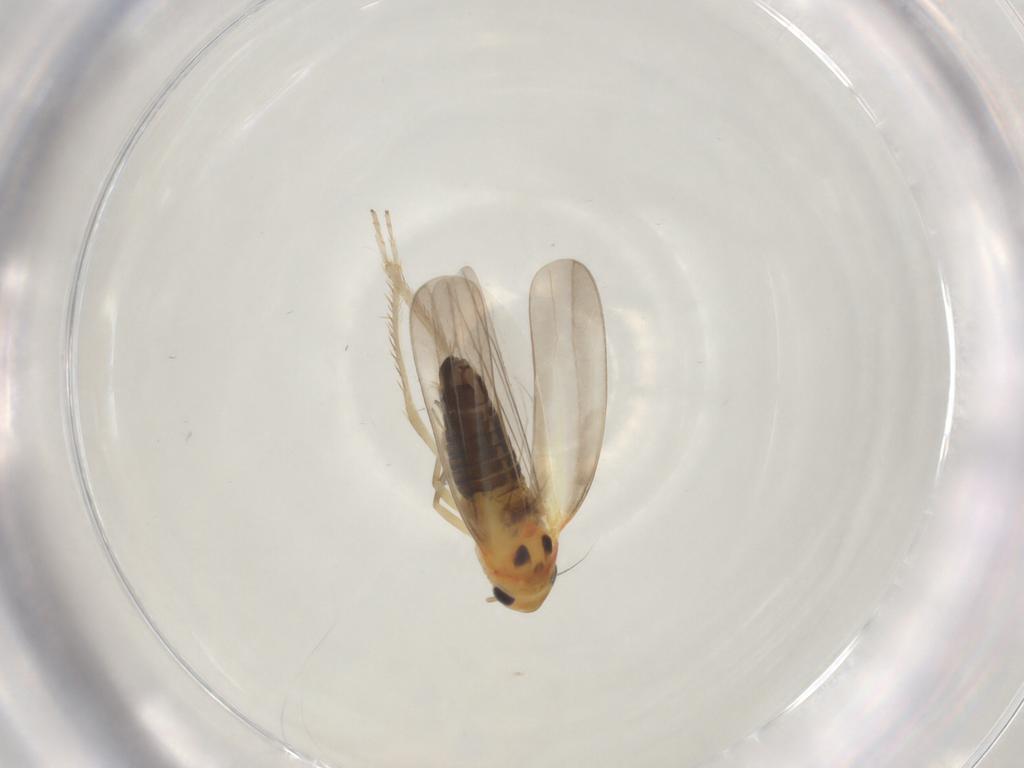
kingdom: Animalia
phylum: Arthropoda
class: Insecta
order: Hemiptera
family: Cicadellidae
